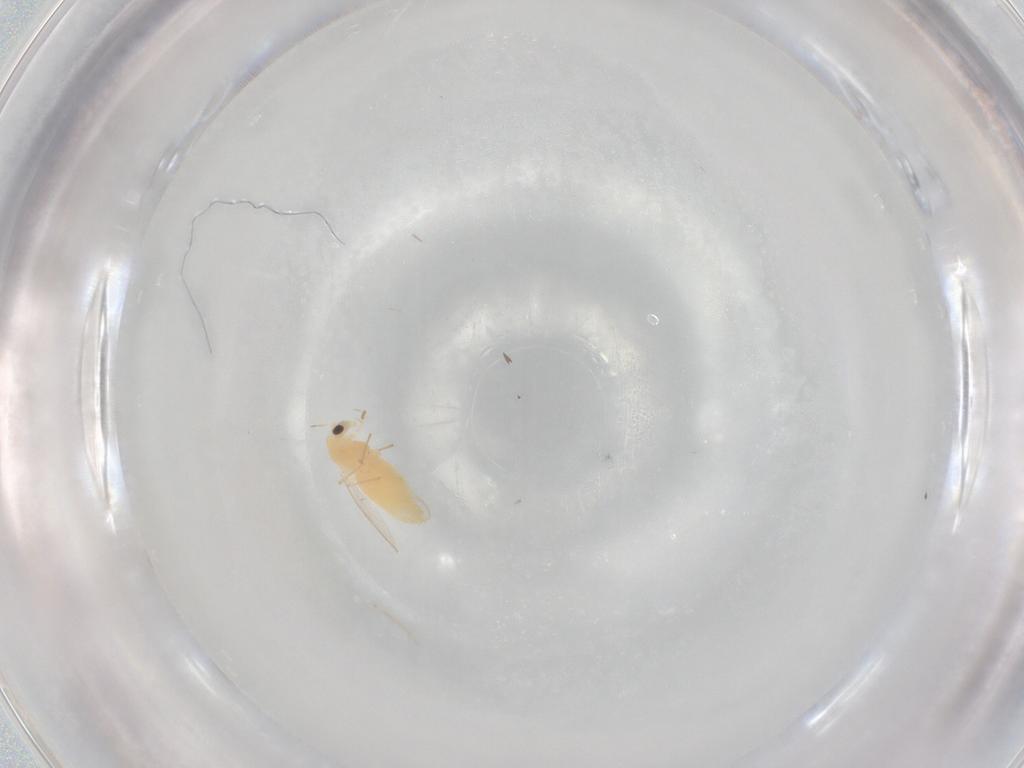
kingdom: Animalia
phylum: Arthropoda
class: Insecta
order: Diptera
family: Chironomidae
